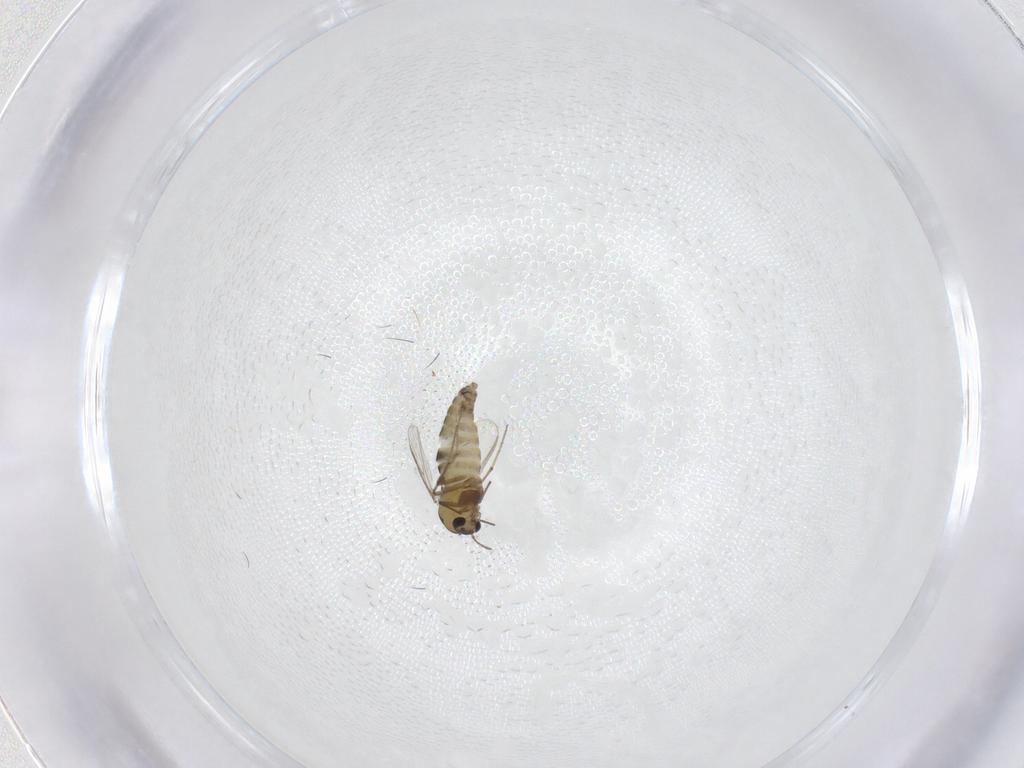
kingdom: Animalia
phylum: Arthropoda
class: Insecta
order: Diptera
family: Chironomidae
